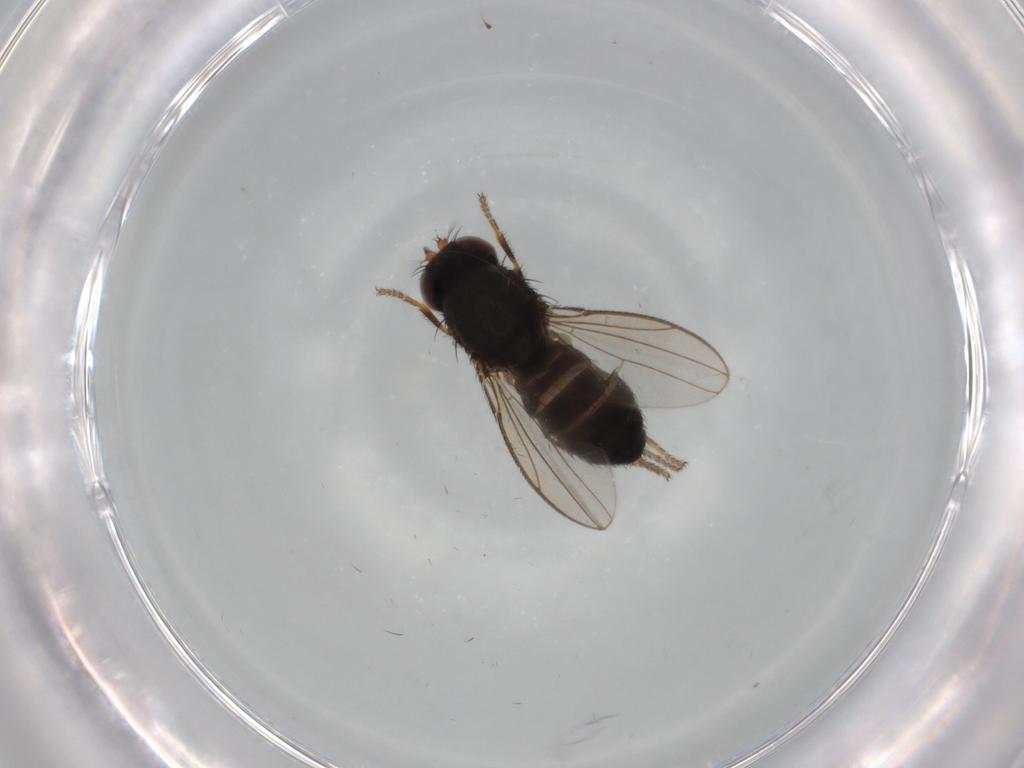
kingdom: Animalia
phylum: Arthropoda
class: Insecta
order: Diptera
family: Ephydridae
